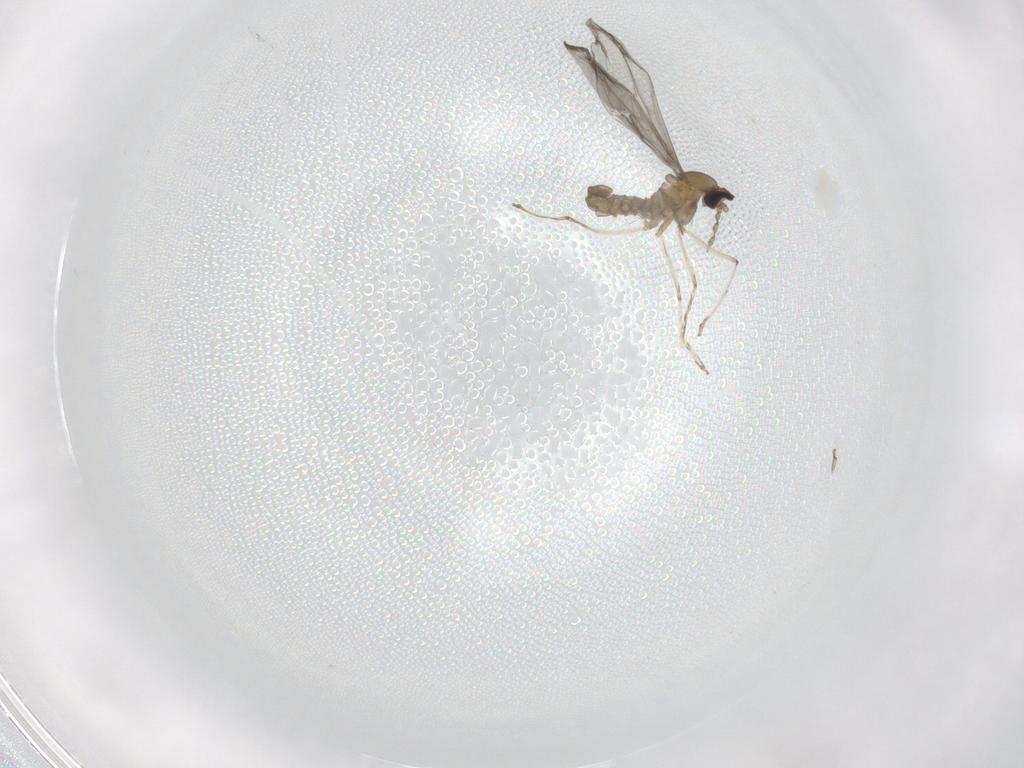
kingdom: Animalia
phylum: Arthropoda
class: Insecta
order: Diptera
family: Cecidomyiidae
